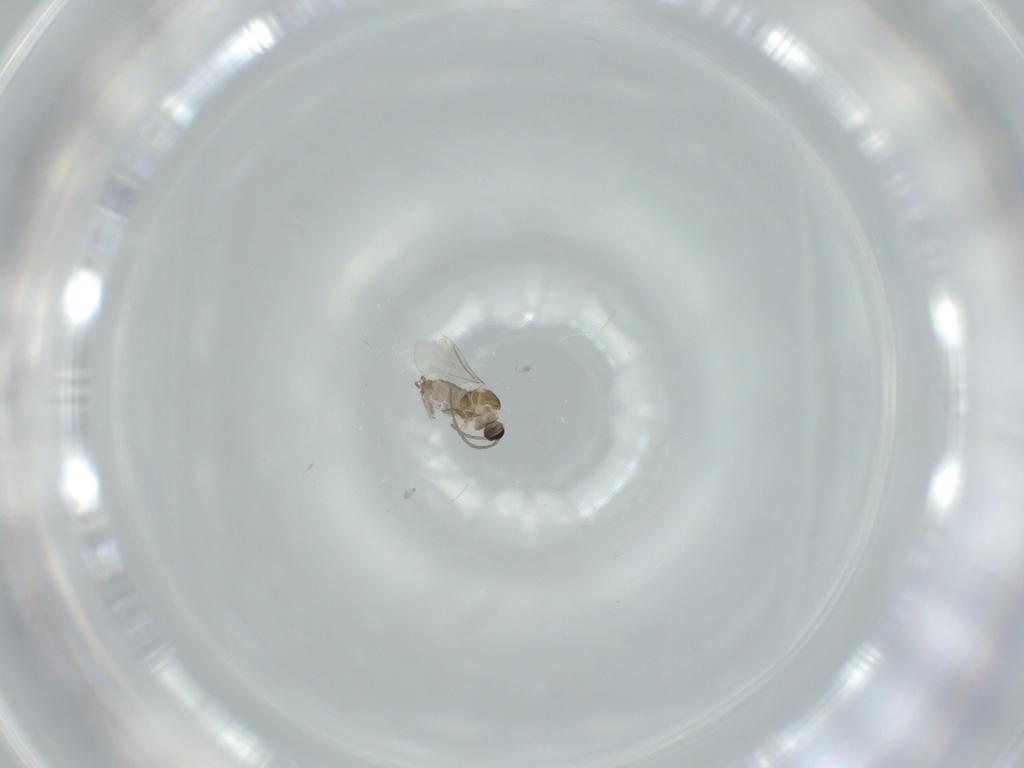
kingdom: Animalia
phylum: Arthropoda
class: Insecta
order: Diptera
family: Cecidomyiidae
